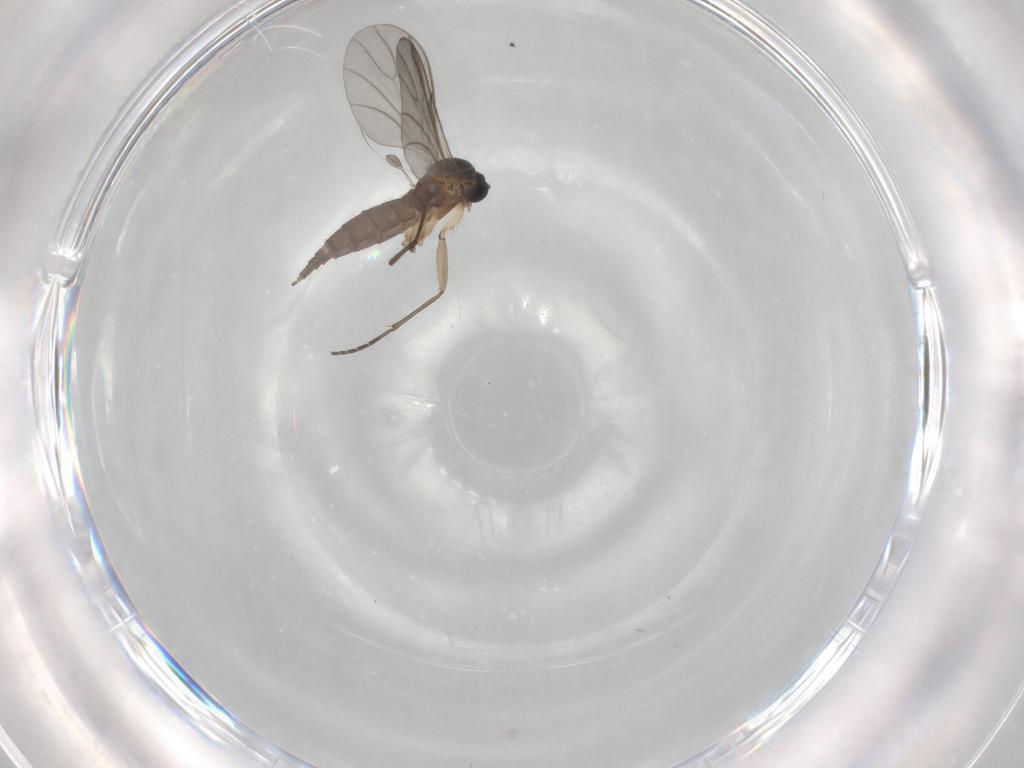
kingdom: Animalia
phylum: Arthropoda
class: Insecta
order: Diptera
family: Sciaridae
